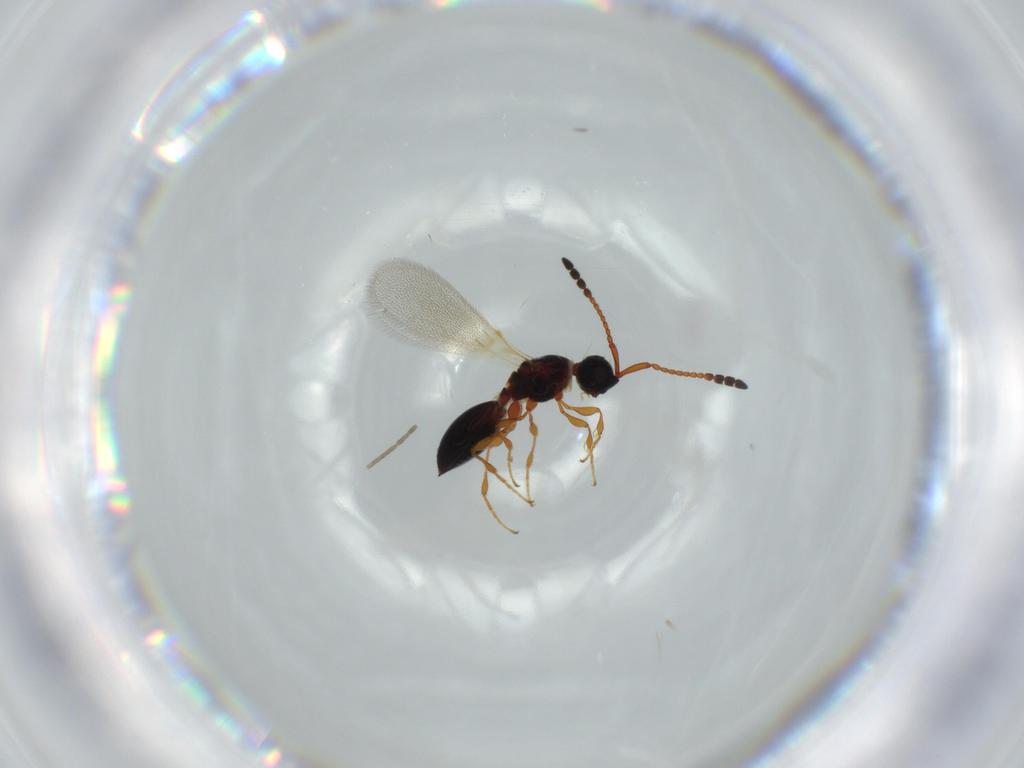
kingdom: Animalia
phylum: Arthropoda
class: Insecta
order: Hymenoptera
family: Diapriidae
